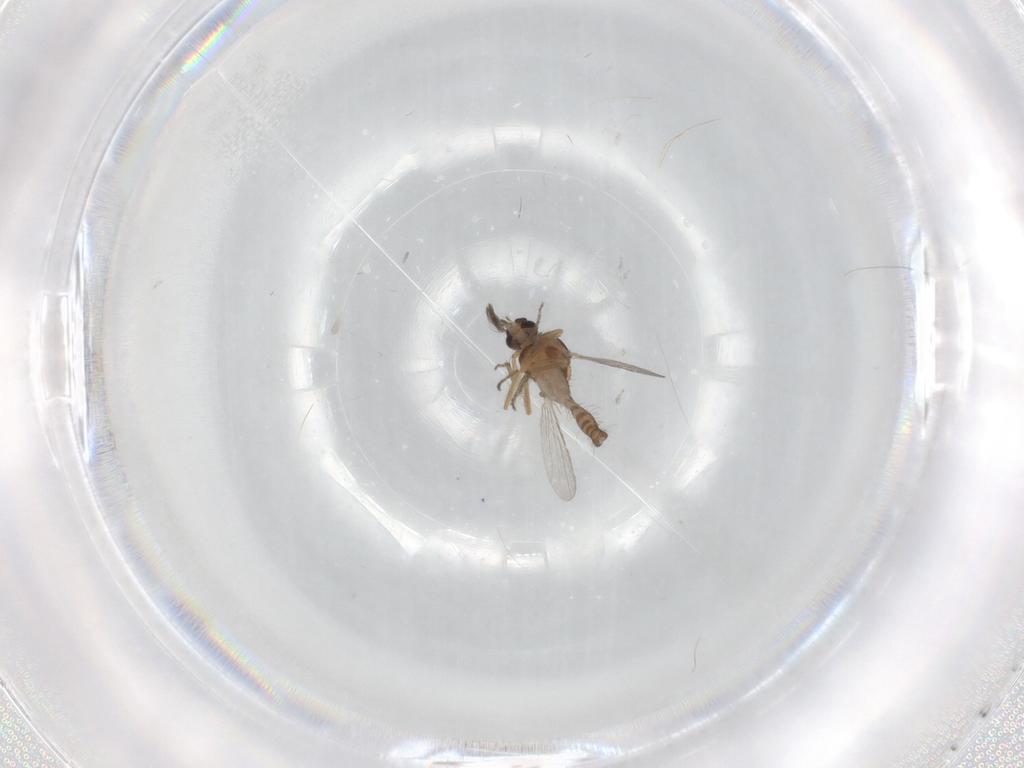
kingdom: Animalia
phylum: Arthropoda
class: Insecta
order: Diptera
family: Ceratopogonidae
